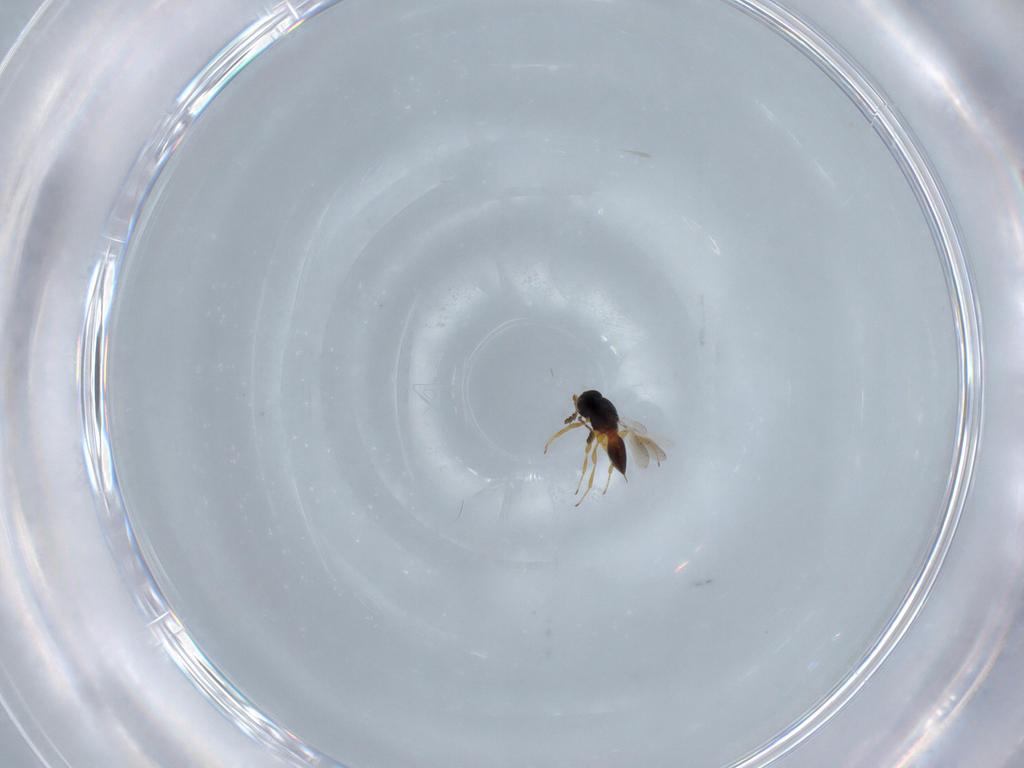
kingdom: Animalia
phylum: Arthropoda
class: Insecta
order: Hymenoptera
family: Platygastridae
